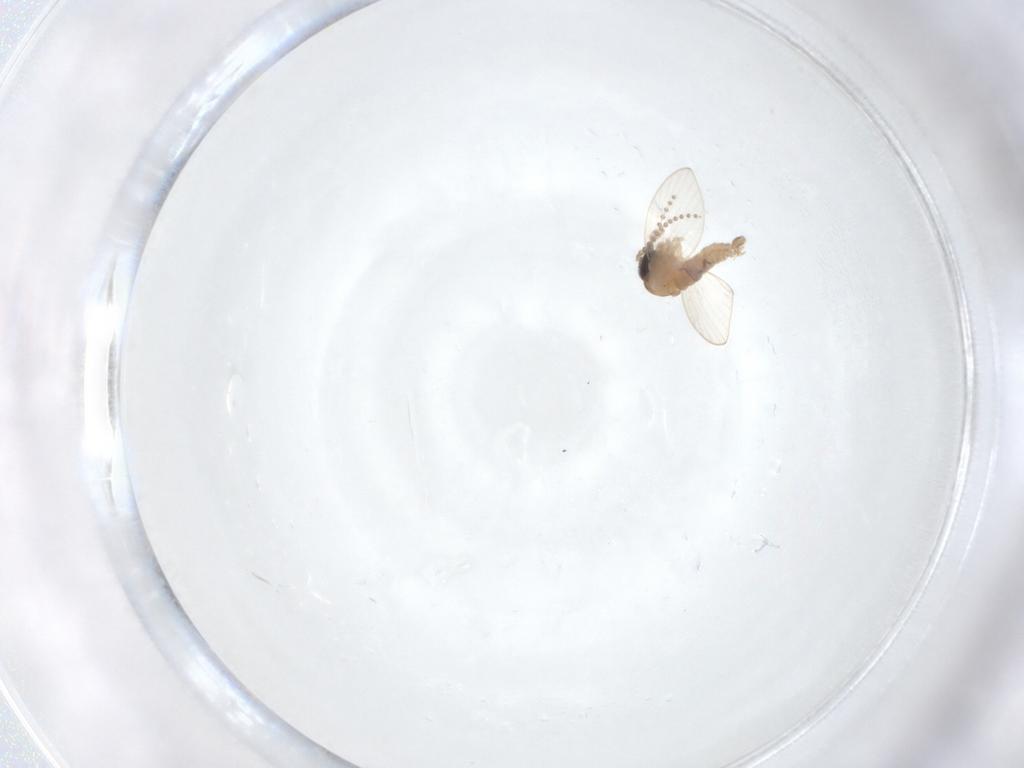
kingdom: Animalia
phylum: Arthropoda
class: Insecta
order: Diptera
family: Psychodidae
